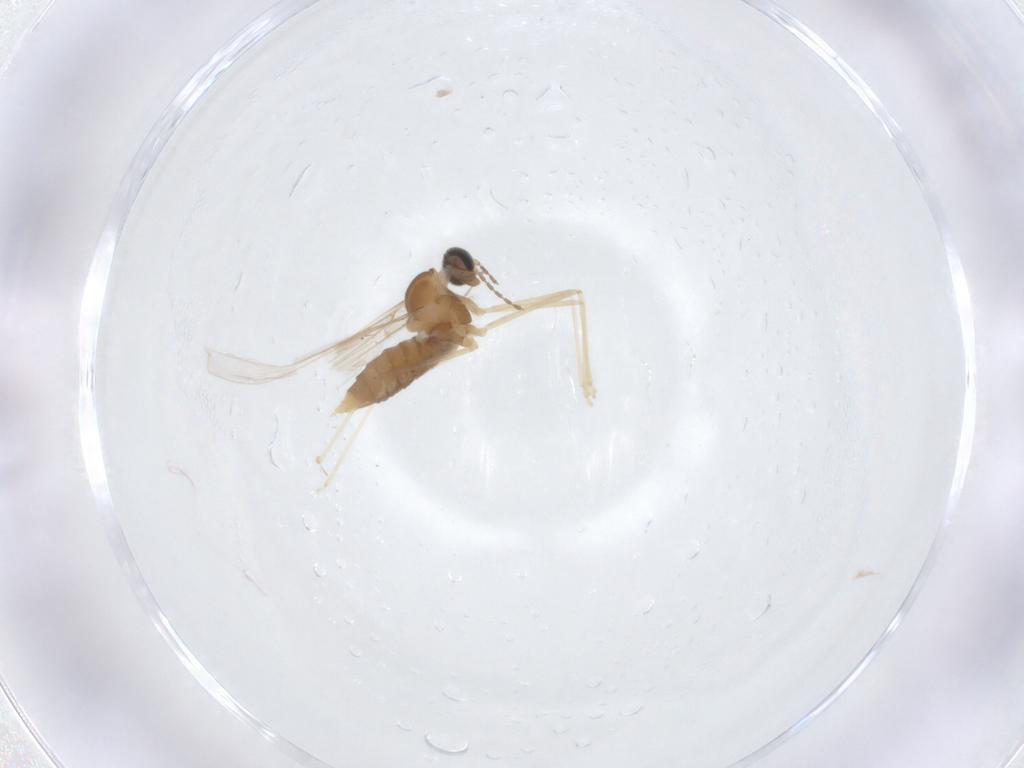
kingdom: Animalia
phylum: Arthropoda
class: Insecta
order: Diptera
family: Cecidomyiidae
